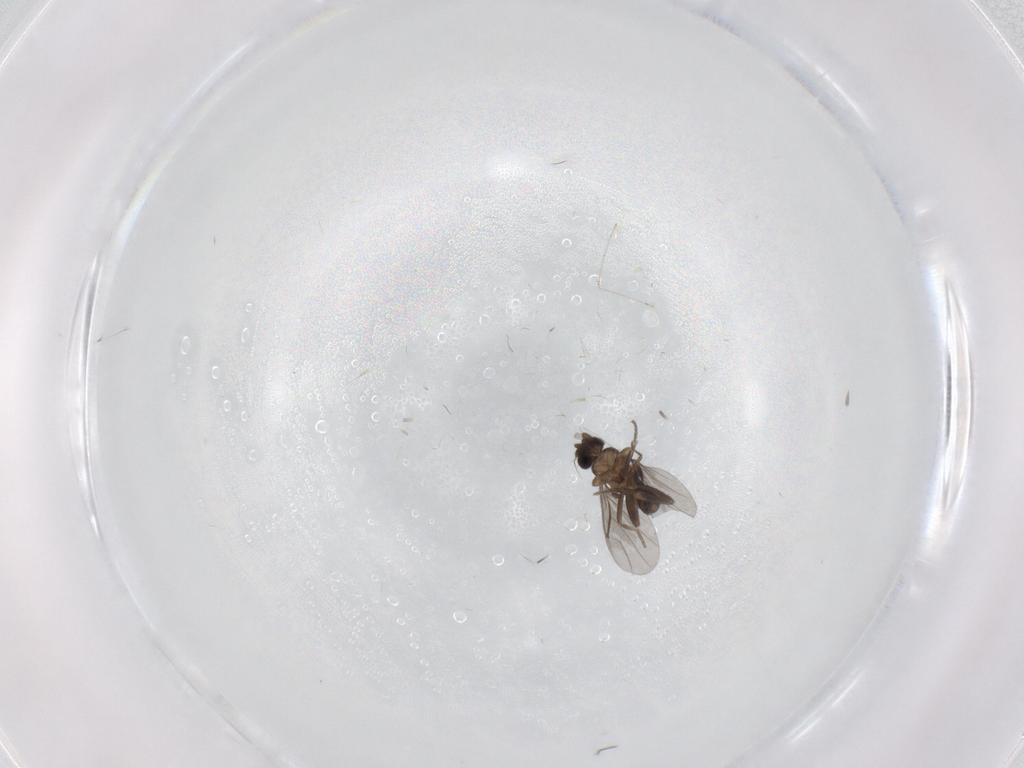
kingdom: Animalia
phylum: Arthropoda
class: Insecta
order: Diptera
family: Sciaridae
